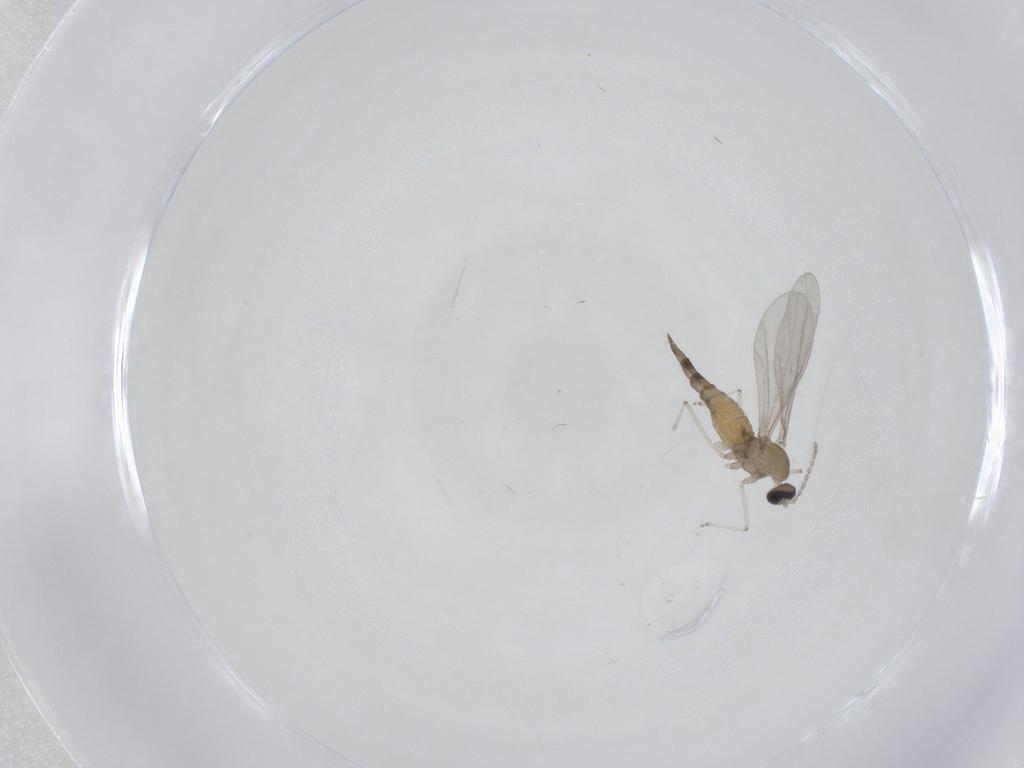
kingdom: Animalia
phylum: Arthropoda
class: Insecta
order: Diptera
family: Cecidomyiidae
